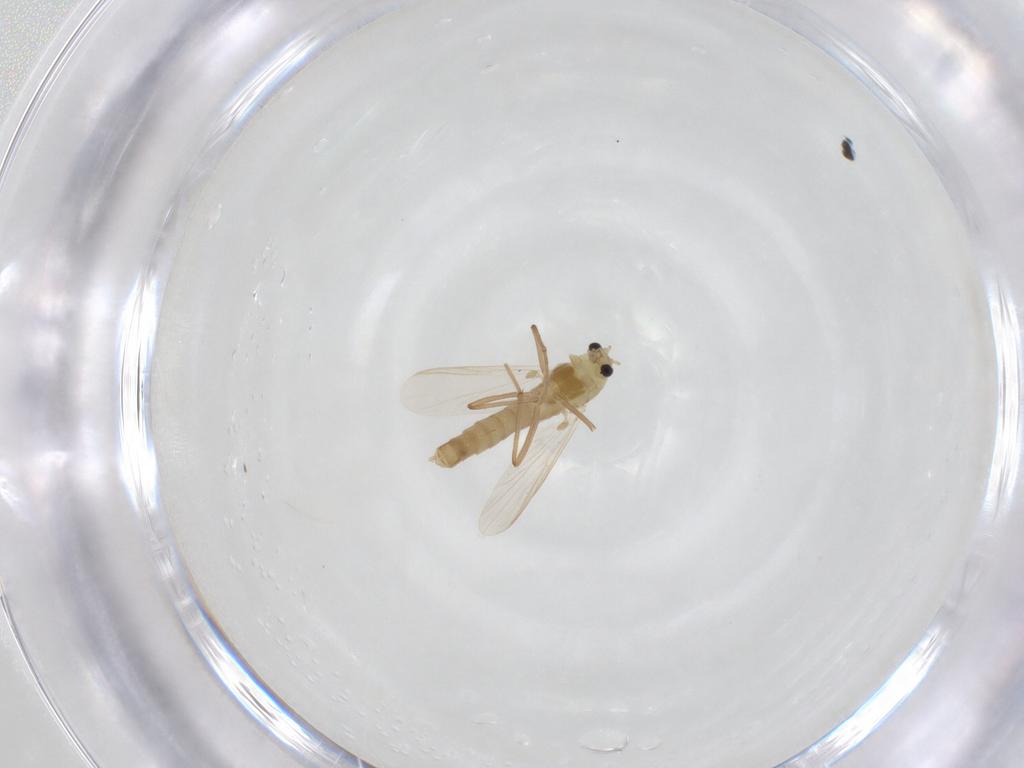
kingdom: Animalia
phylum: Arthropoda
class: Insecta
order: Diptera
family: Chironomidae
